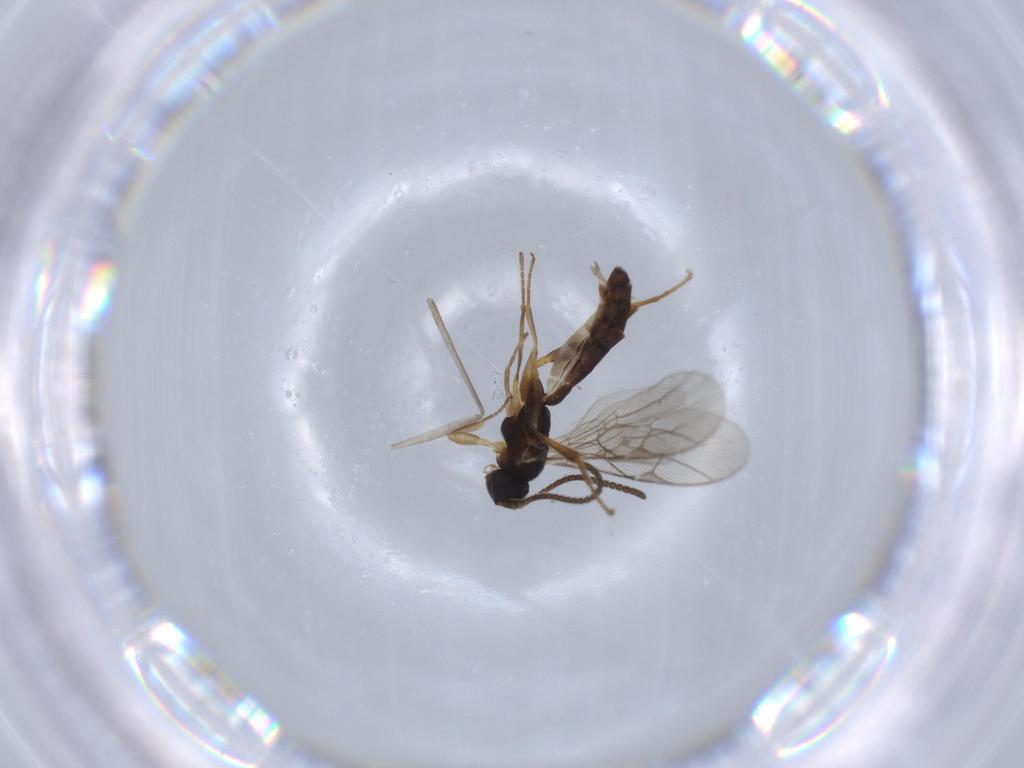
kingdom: Animalia
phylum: Arthropoda
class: Insecta
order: Hymenoptera
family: Ichneumonidae
